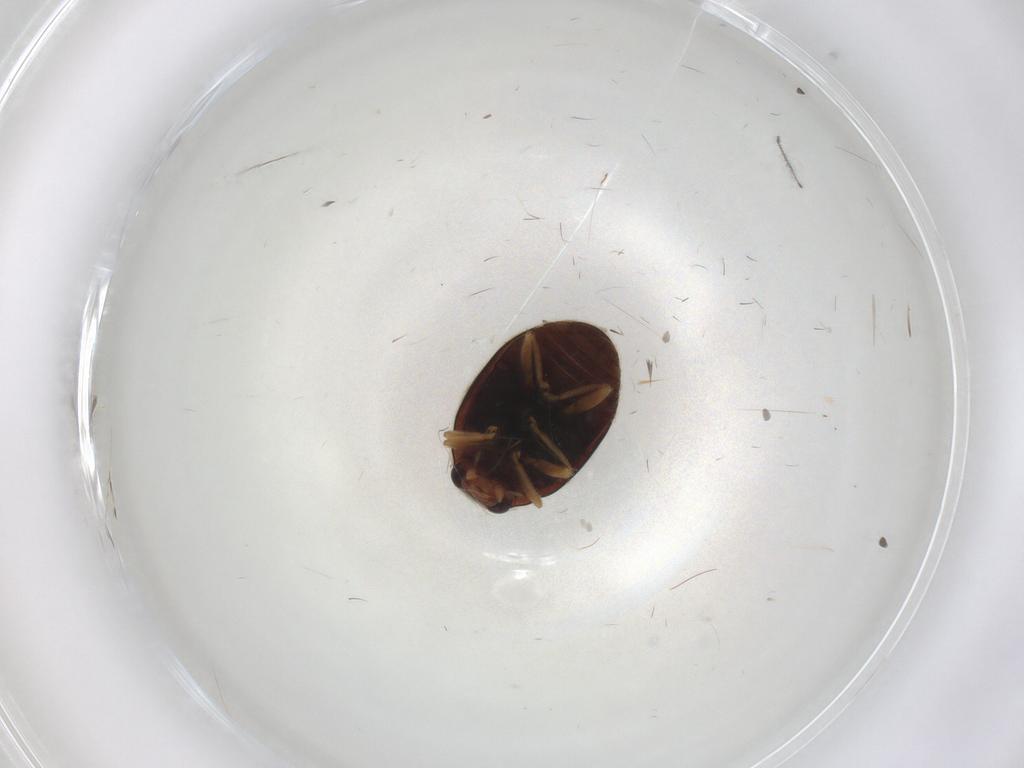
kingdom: Animalia
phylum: Arthropoda
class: Insecta
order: Coleoptera
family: Coccinellidae
